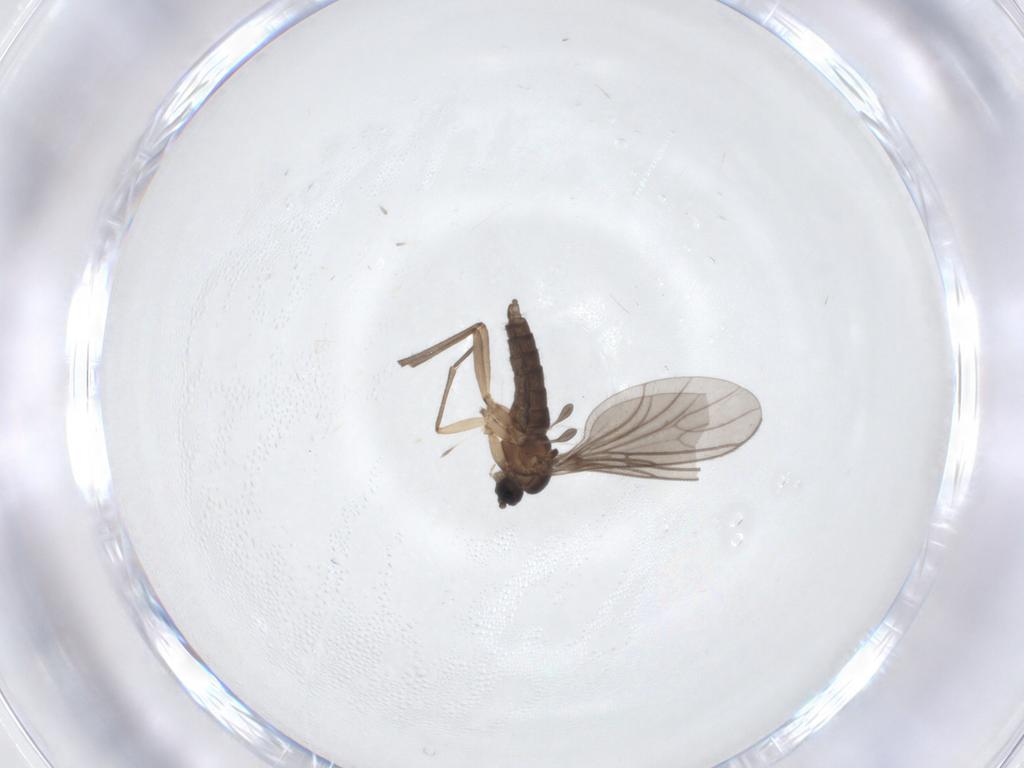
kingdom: Animalia
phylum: Arthropoda
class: Insecta
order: Diptera
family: Sciaridae
